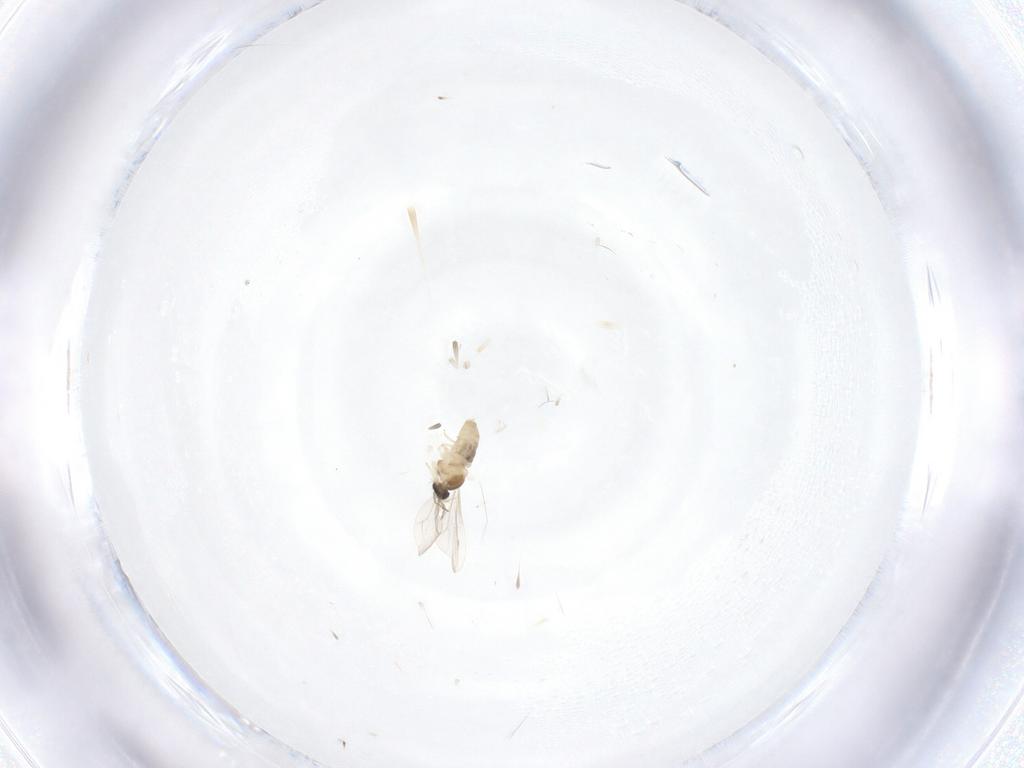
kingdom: Animalia
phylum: Arthropoda
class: Insecta
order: Diptera
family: Cecidomyiidae
